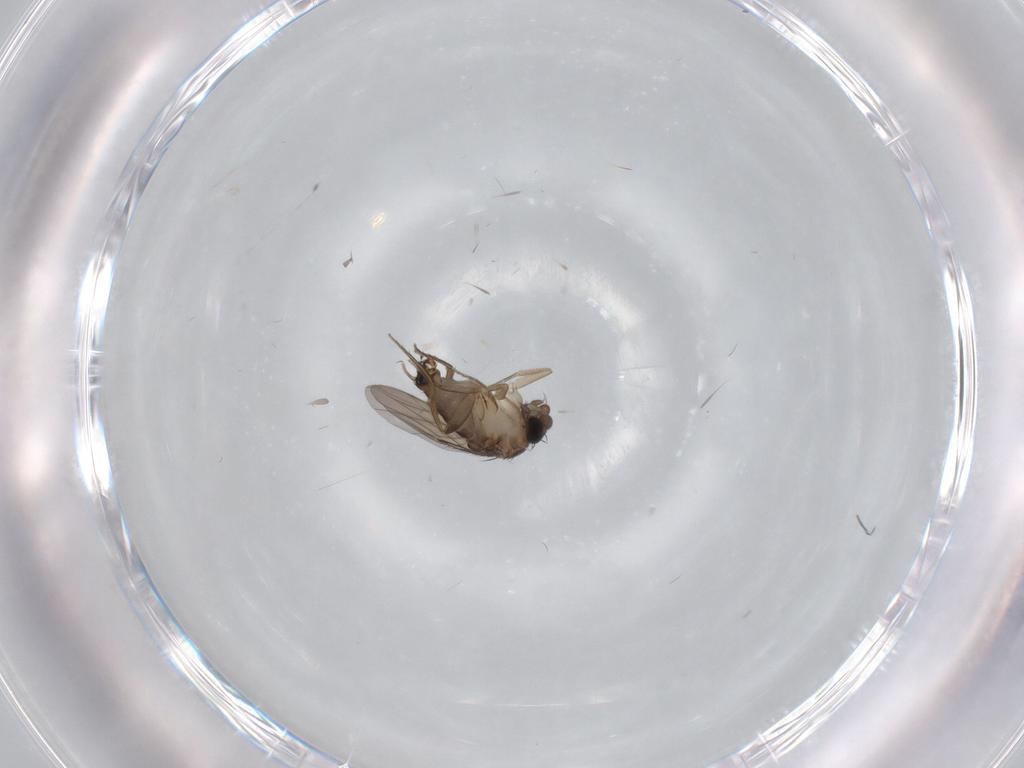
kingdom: Animalia
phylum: Arthropoda
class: Insecta
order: Diptera
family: Phoridae
